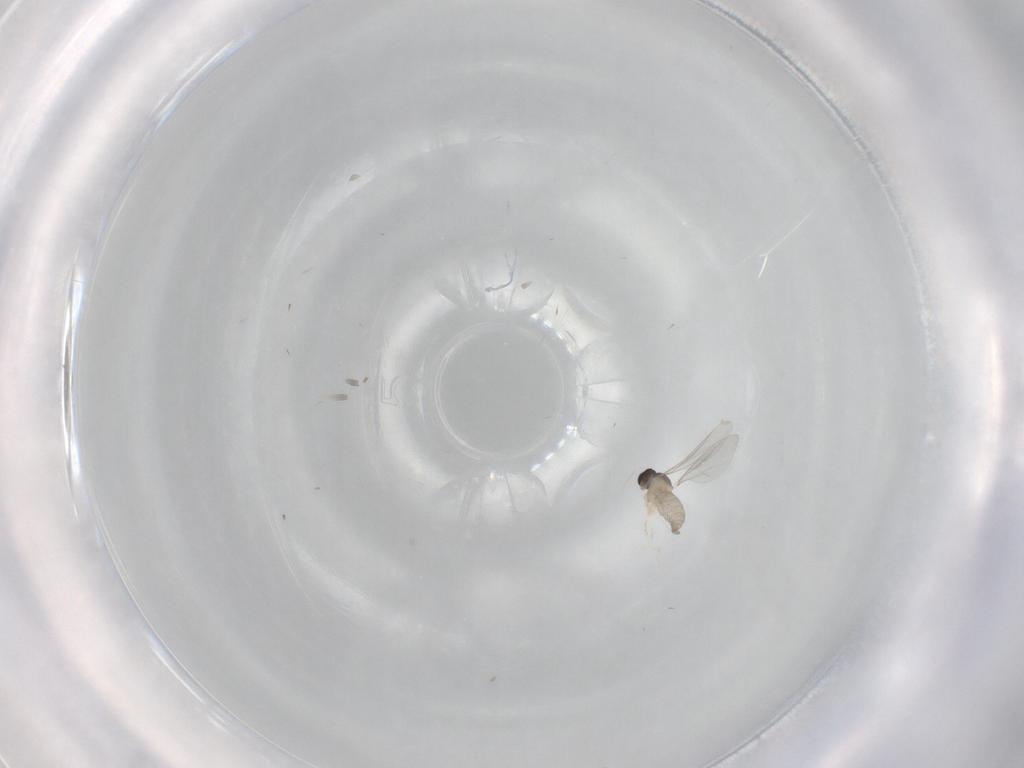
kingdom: Animalia
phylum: Arthropoda
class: Insecta
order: Diptera
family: Cecidomyiidae
